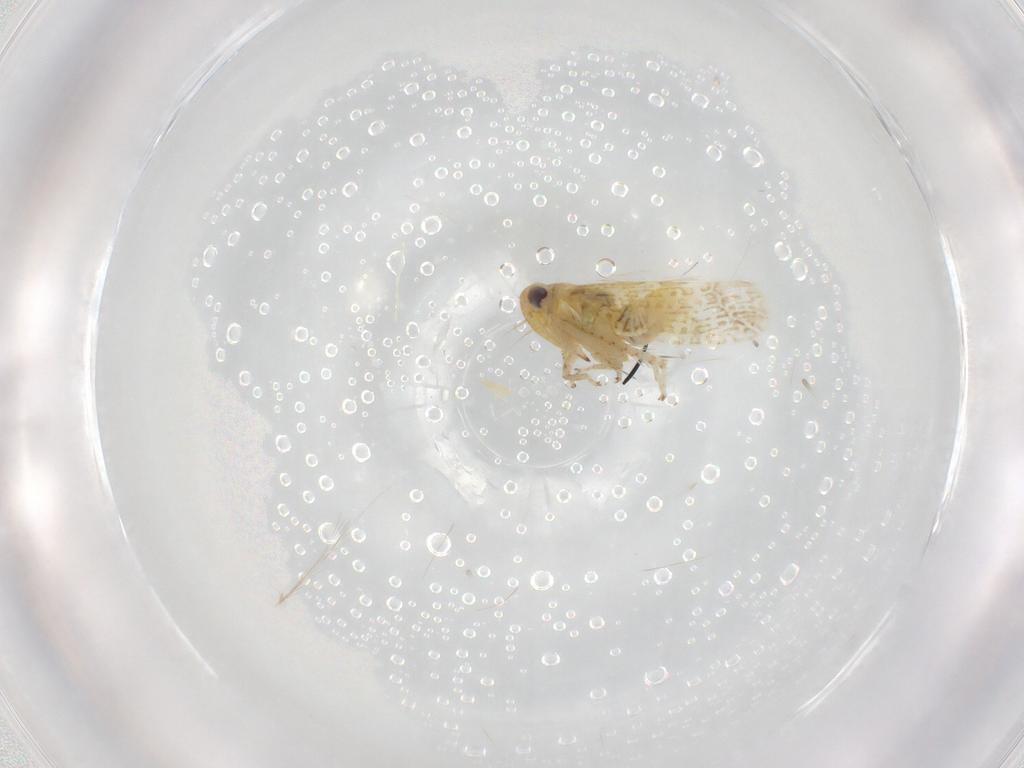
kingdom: Animalia
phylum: Arthropoda
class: Insecta
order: Hemiptera
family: Cicadellidae
